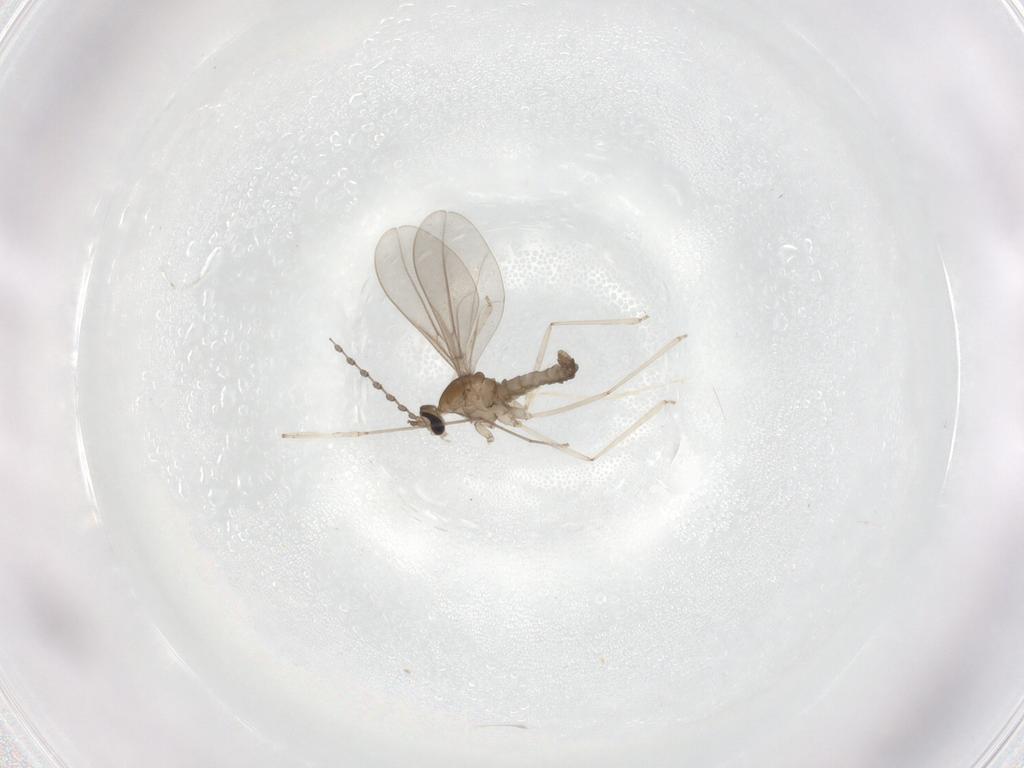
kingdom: Animalia
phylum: Arthropoda
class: Insecta
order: Diptera
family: Cecidomyiidae
